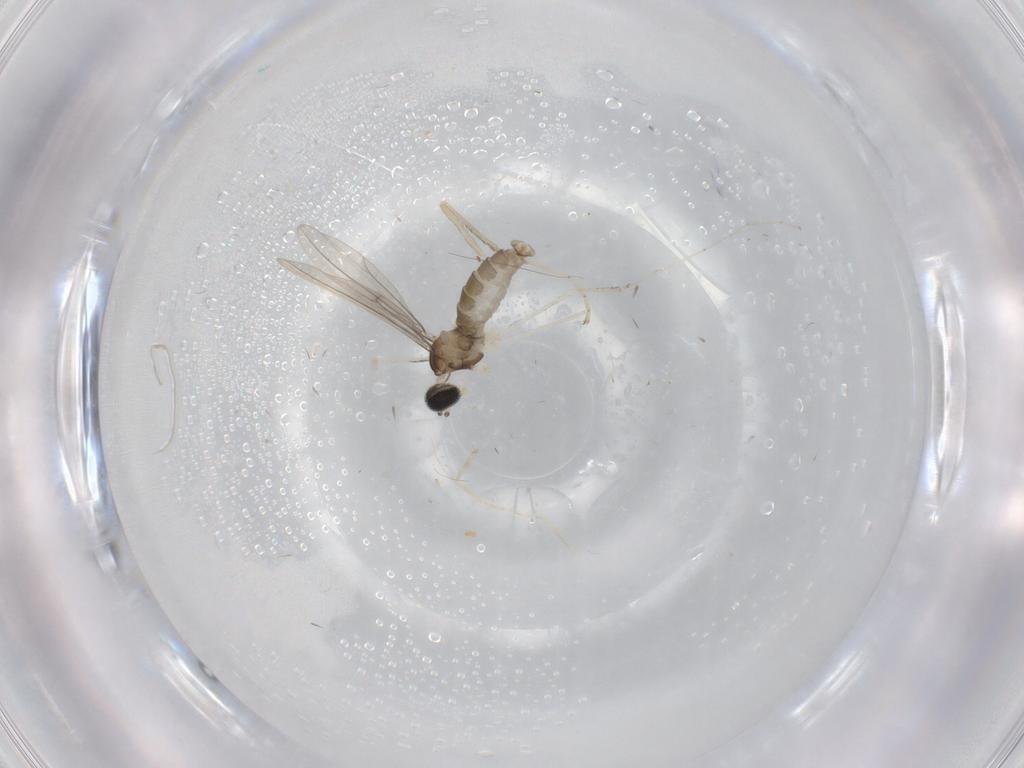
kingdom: Animalia
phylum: Arthropoda
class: Insecta
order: Diptera
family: Cecidomyiidae
